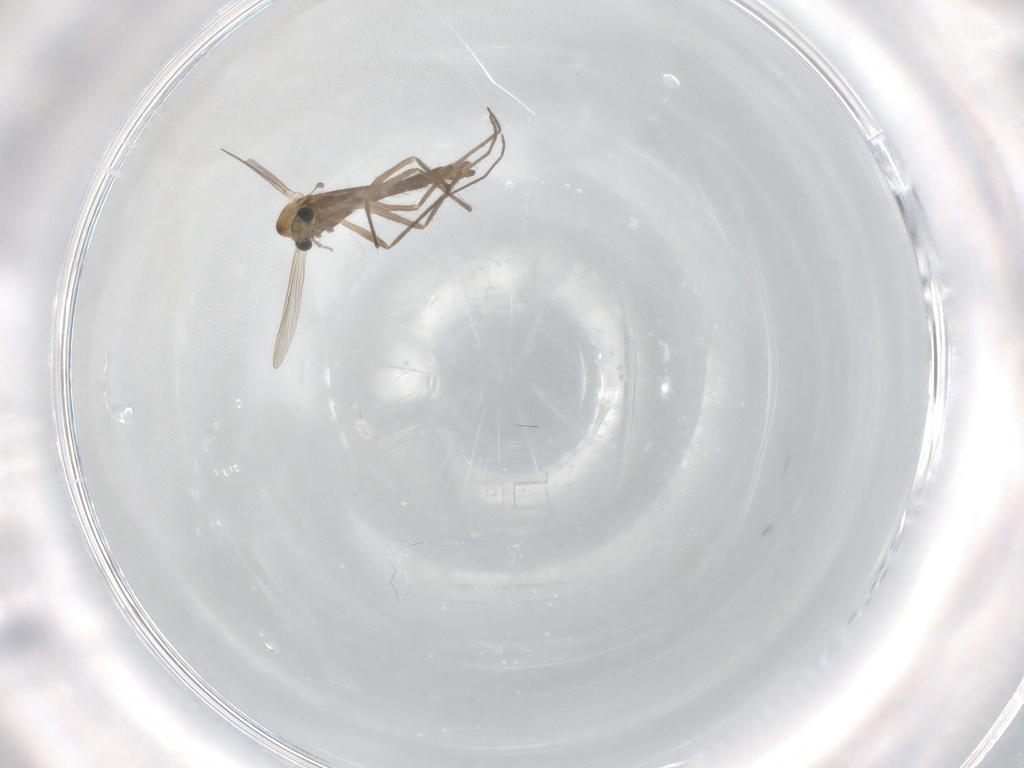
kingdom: Animalia
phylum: Arthropoda
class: Insecta
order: Diptera
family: Chironomidae
